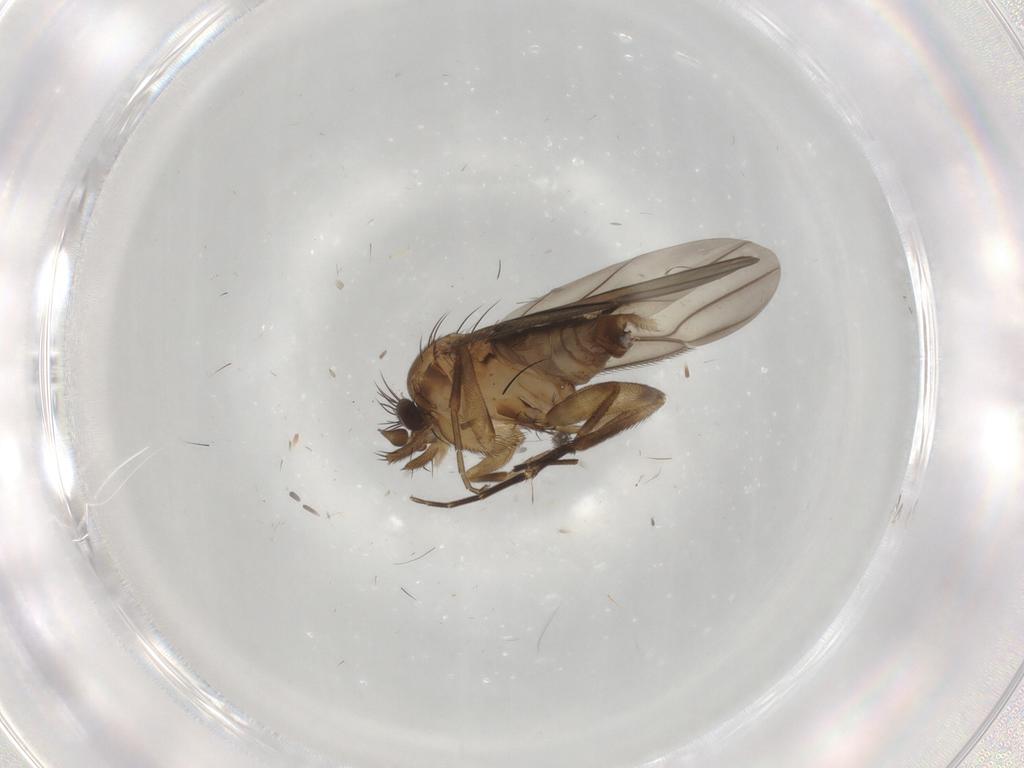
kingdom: Animalia
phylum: Arthropoda
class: Insecta
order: Diptera
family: Phoridae
